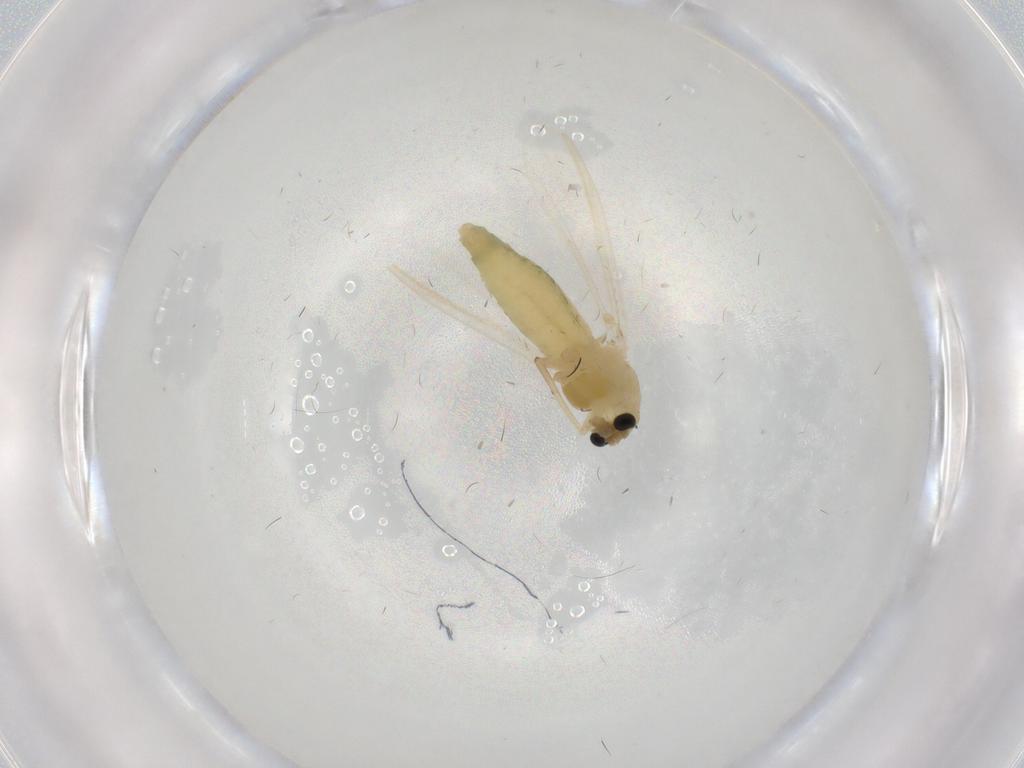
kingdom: Animalia
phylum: Arthropoda
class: Insecta
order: Diptera
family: Chironomidae
